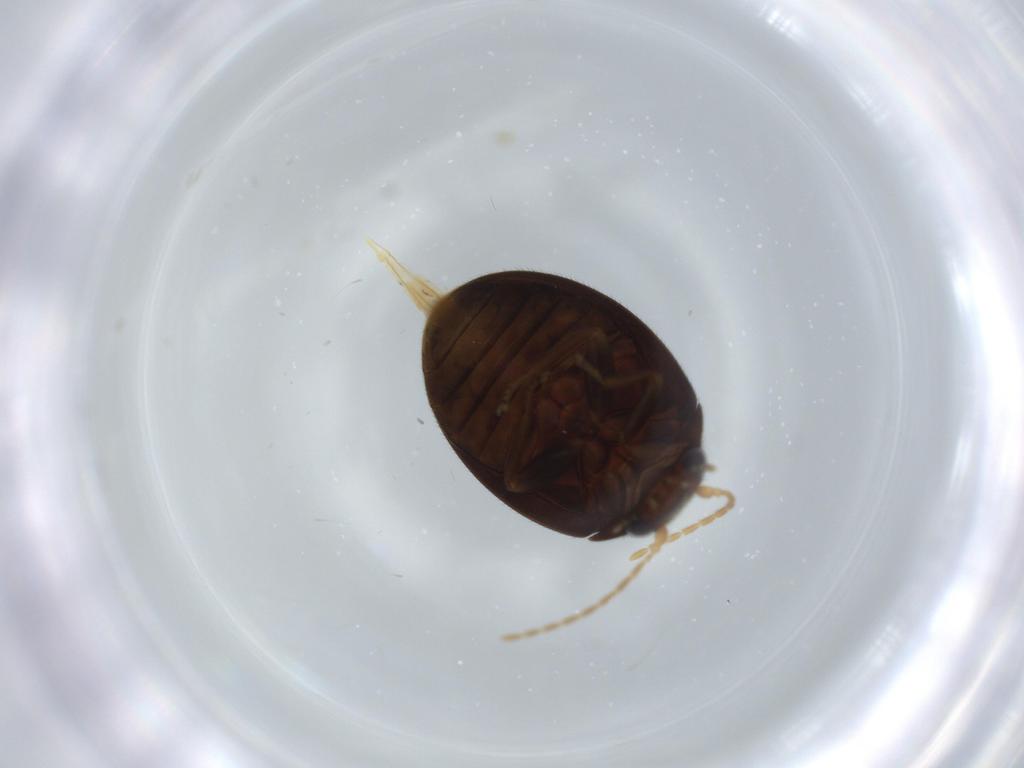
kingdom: Animalia
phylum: Arthropoda
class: Insecta
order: Coleoptera
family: Scirtidae
